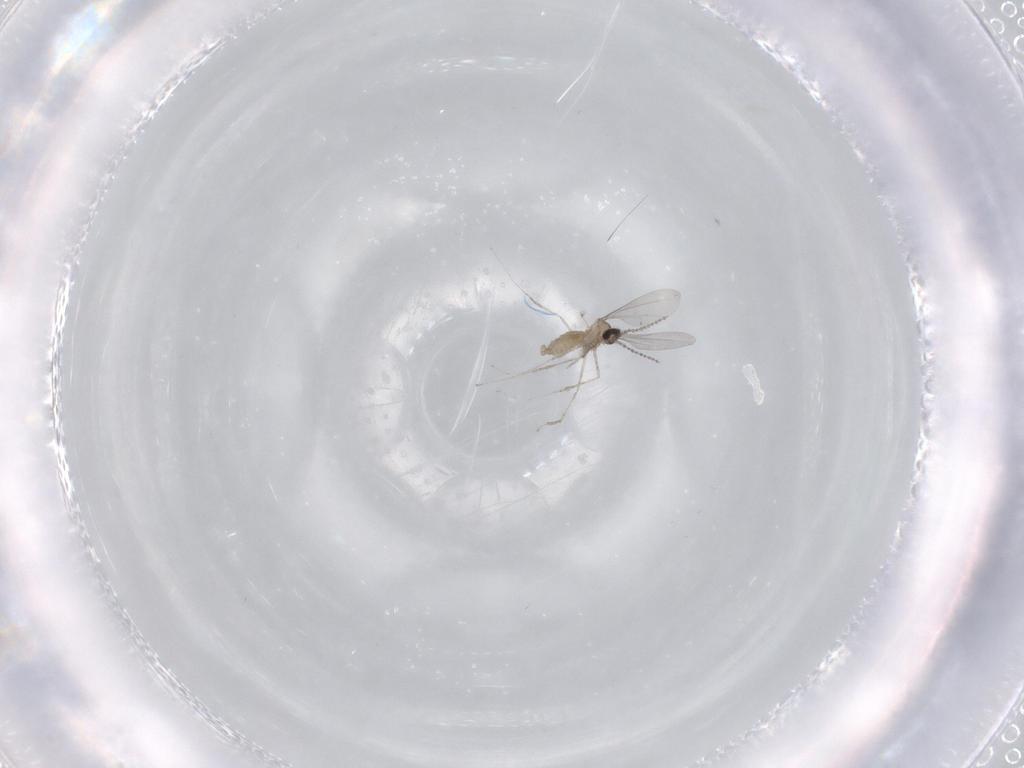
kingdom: Animalia
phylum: Arthropoda
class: Insecta
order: Diptera
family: Cecidomyiidae
